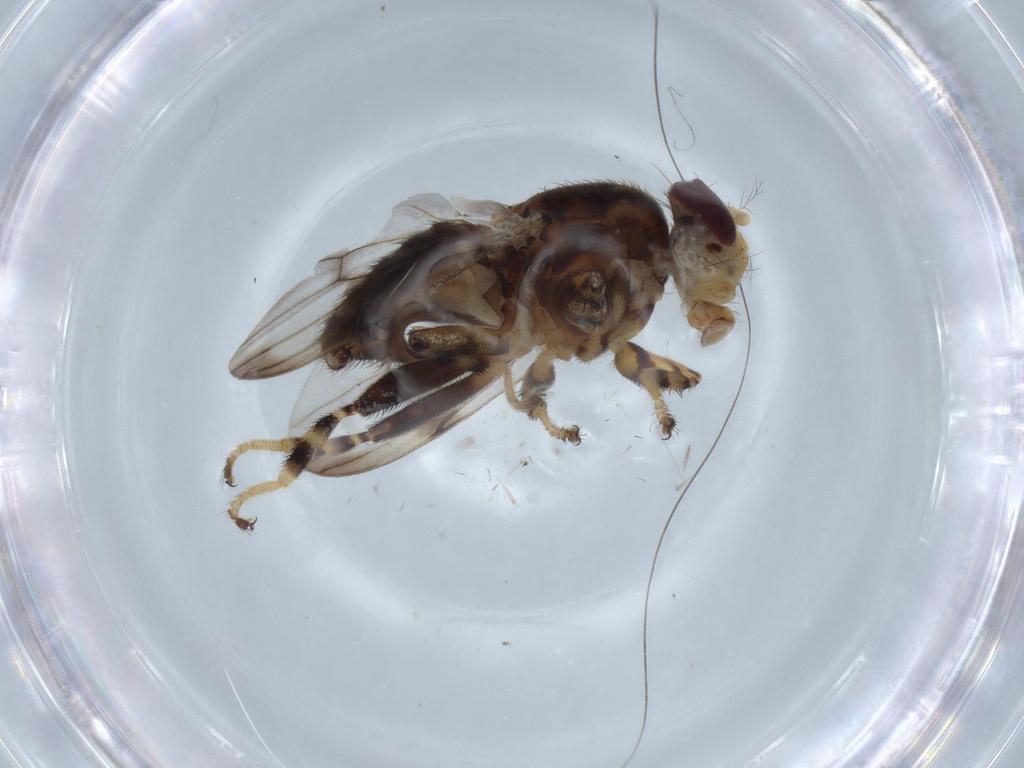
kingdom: Animalia
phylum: Arthropoda
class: Insecta
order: Diptera
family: Periscelididae
